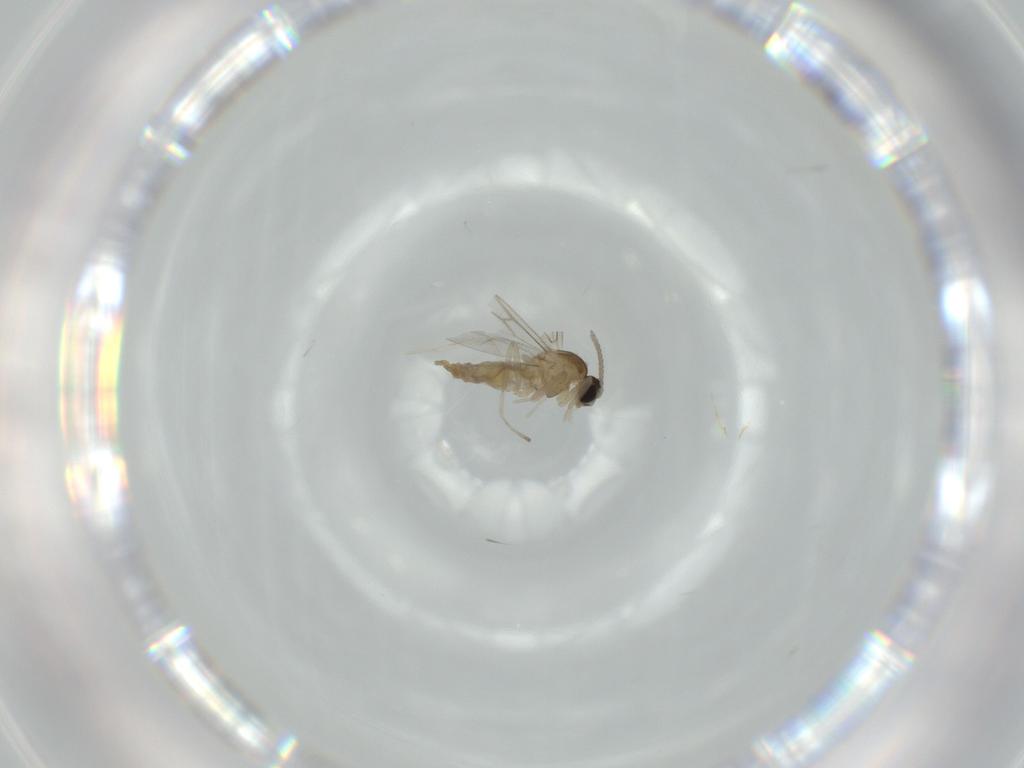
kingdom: Animalia
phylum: Arthropoda
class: Insecta
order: Diptera
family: Cecidomyiidae
